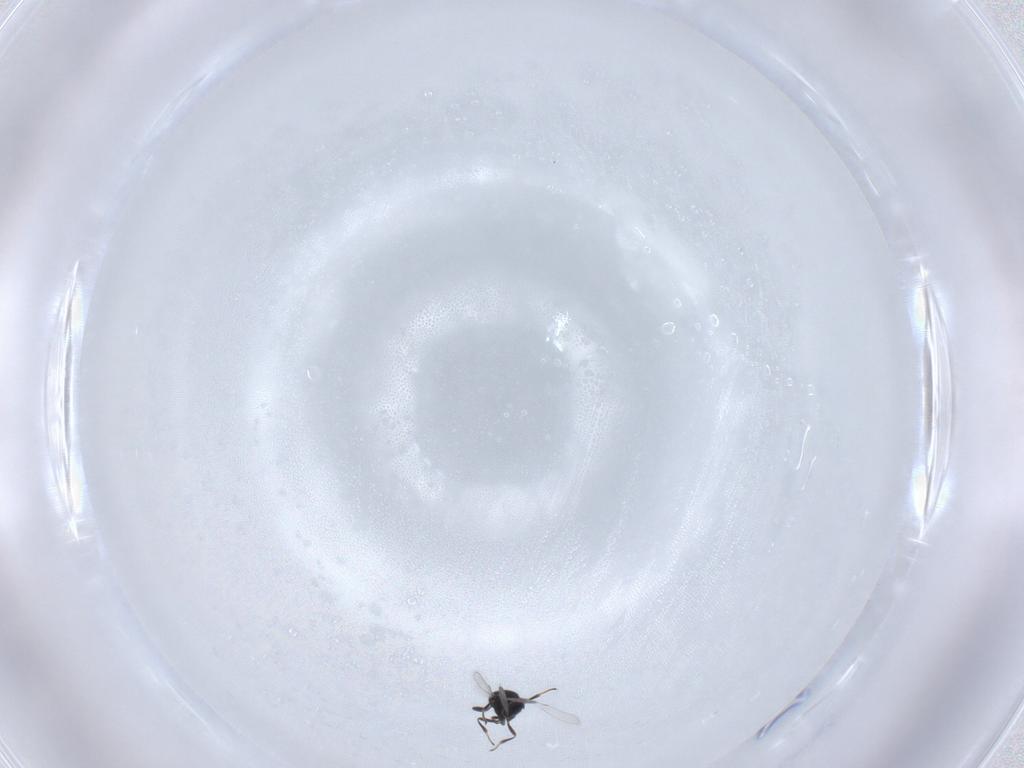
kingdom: Animalia
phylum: Arthropoda
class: Insecta
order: Hymenoptera
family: Scelionidae
